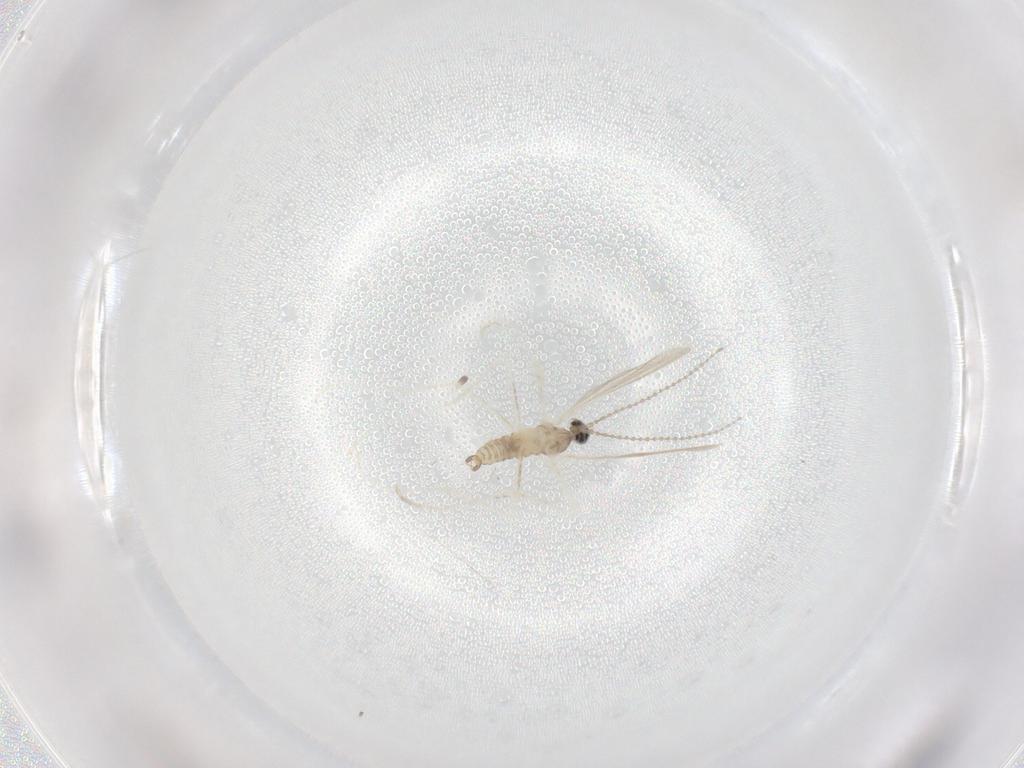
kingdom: Animalia
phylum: Arthropoda
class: Insecta
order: Diptera
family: Cecidomyiidae
